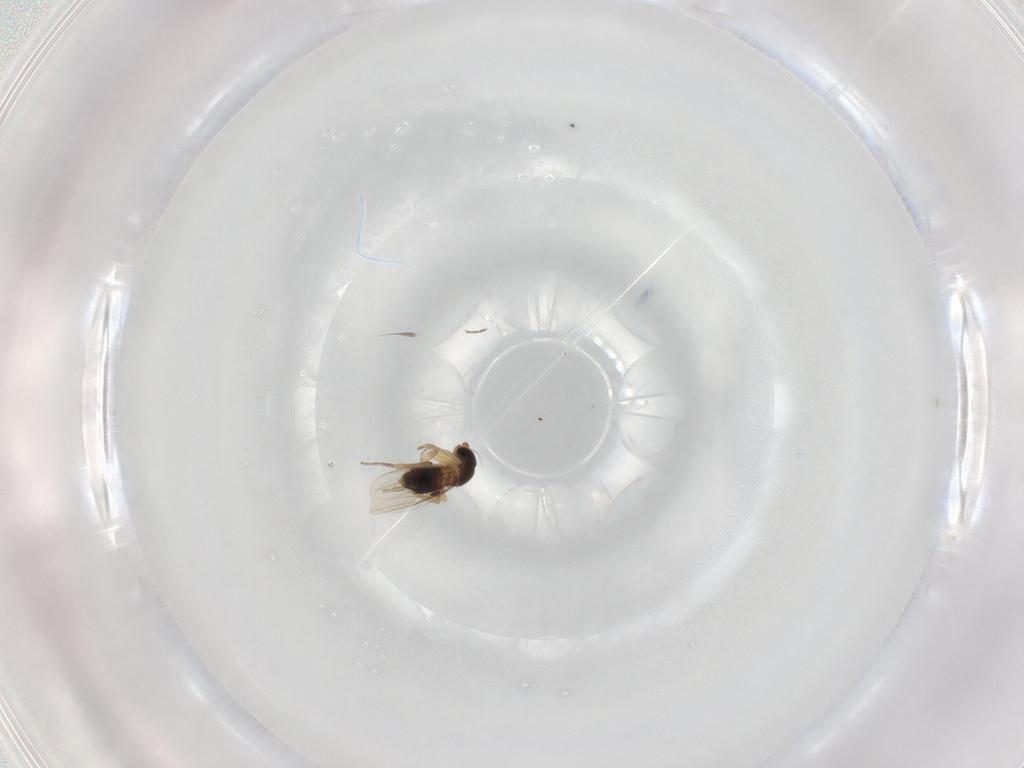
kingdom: Animalia
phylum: Arthropoda
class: Insecta
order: Diptera
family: Phoridae
